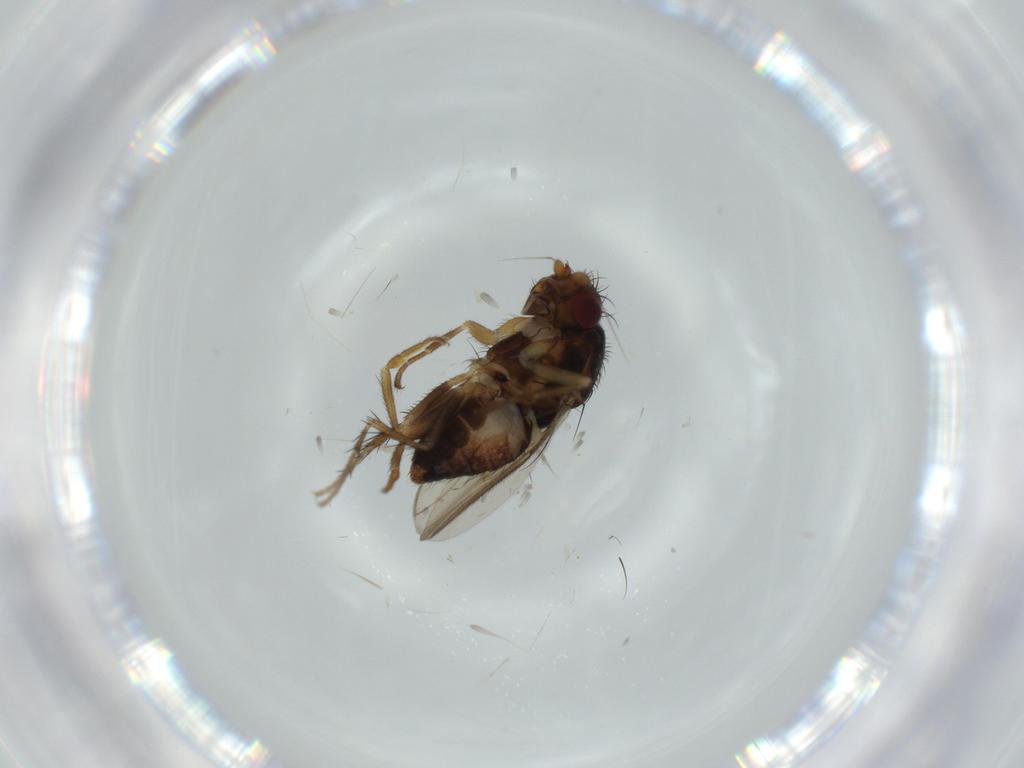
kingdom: Animalia
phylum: Arthropoda
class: Insecta
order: Diptera
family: Sphaeroceridae
